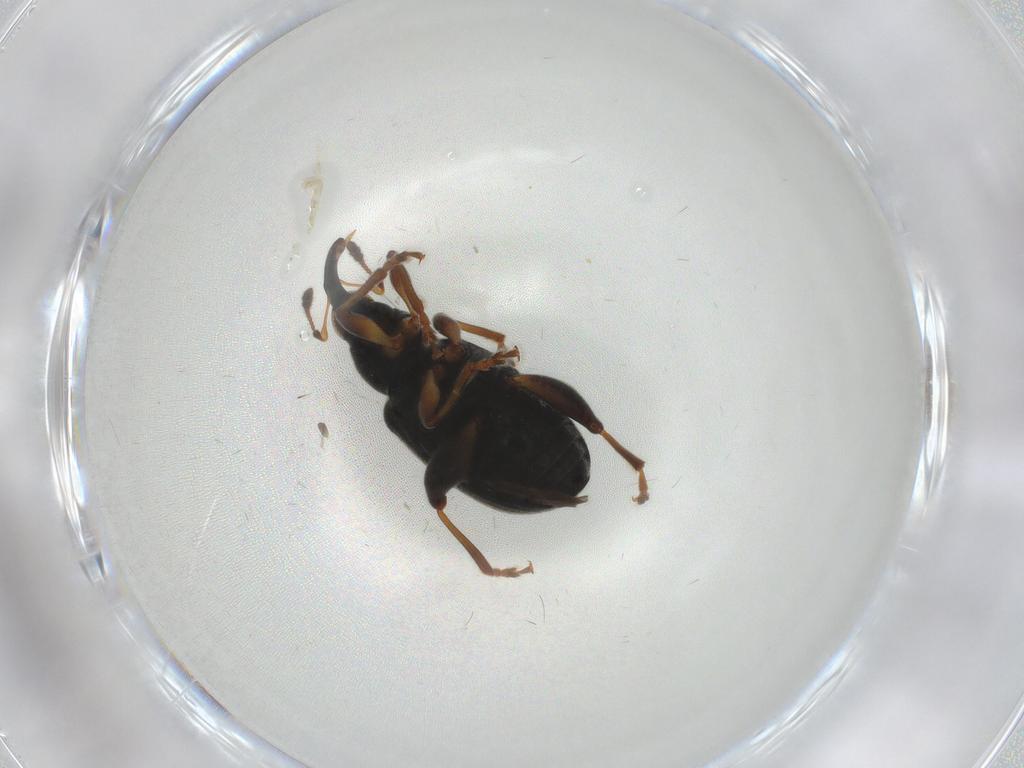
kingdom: Animalia
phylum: Arthropoda
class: Insecta
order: Coleoptera
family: Curculionidae
